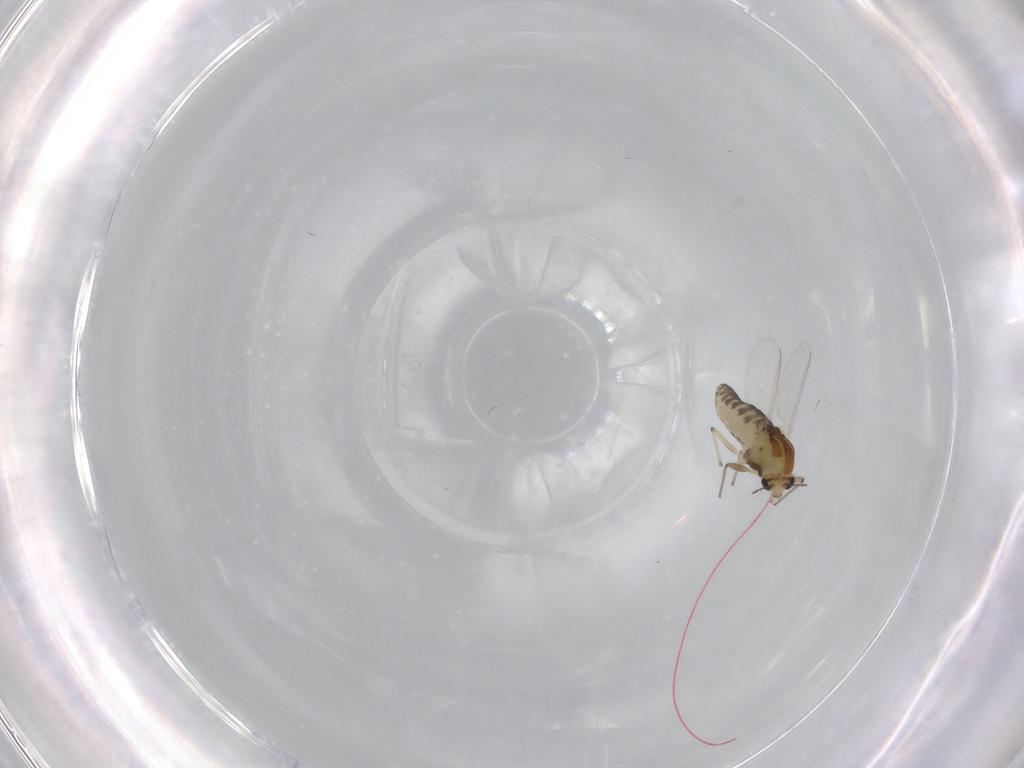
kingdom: Animalia
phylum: Arthropoda
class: Insecta
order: Diptera
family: Chironomidae
